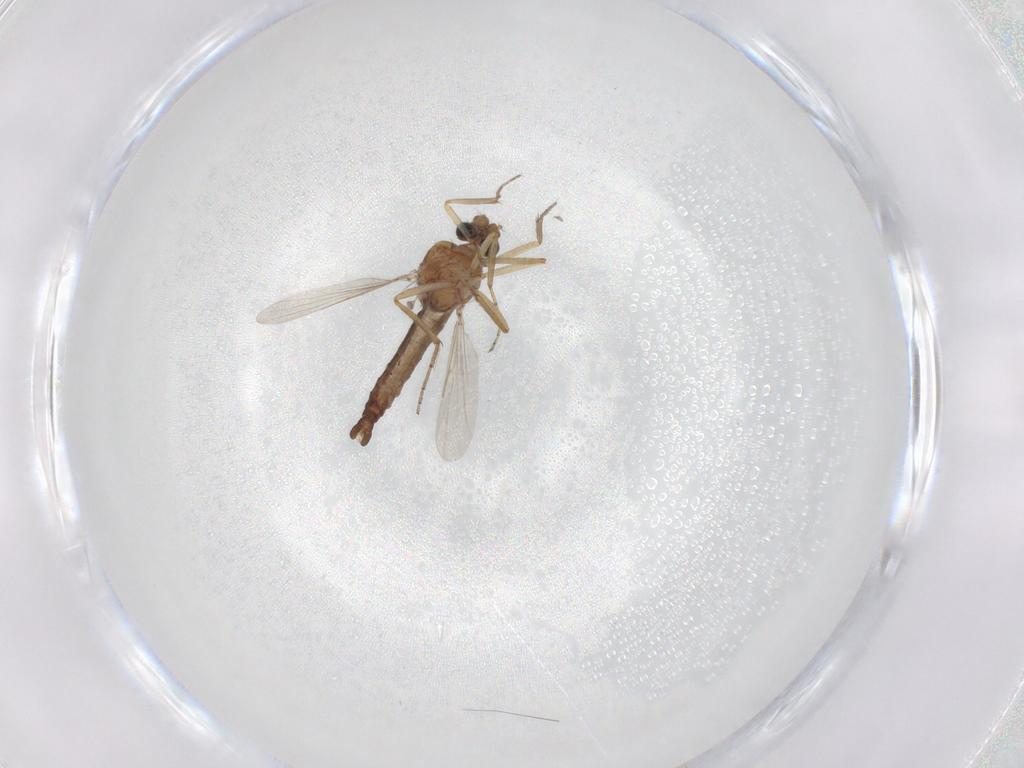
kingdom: Animalia
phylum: Arthropoda
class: Insecta
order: Diptera
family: Ceratopogonidae
